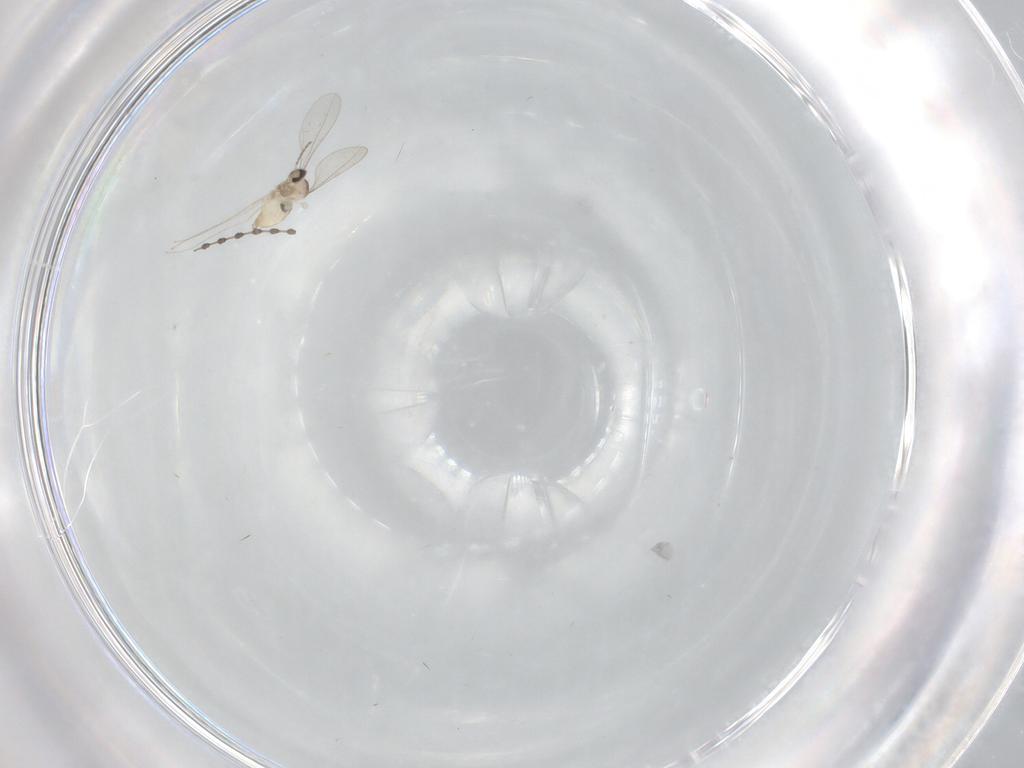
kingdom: Animalia
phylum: Arthropoda
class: Insecta
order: Diptera
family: Cecidomyiidae
